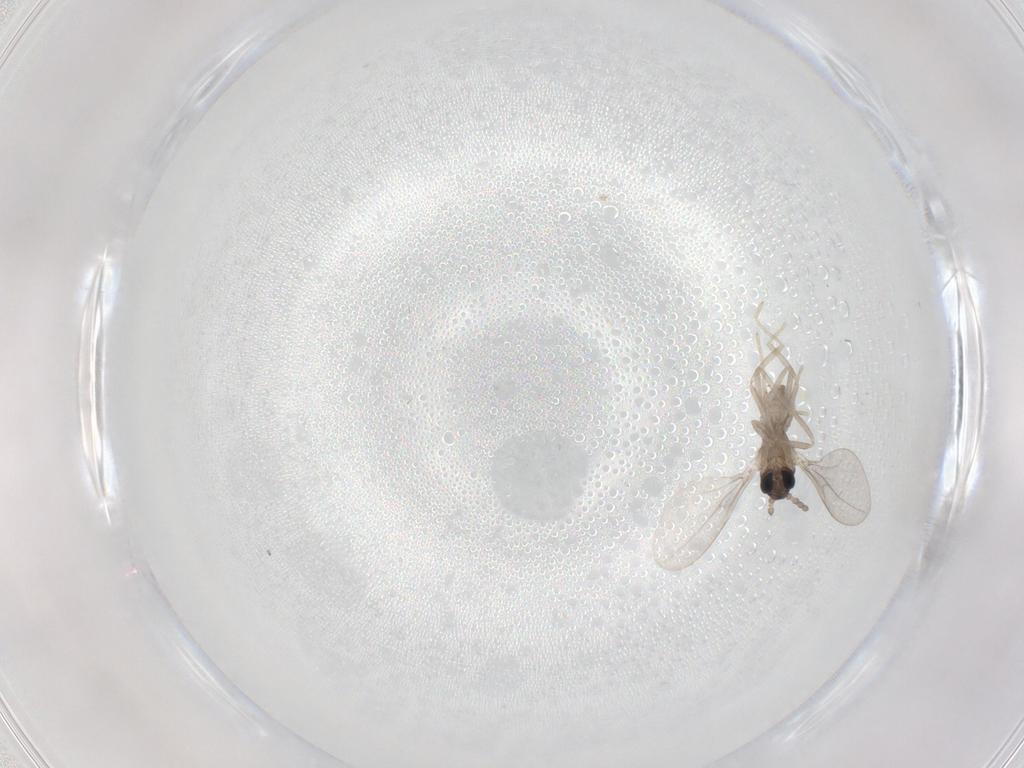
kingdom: Animalia
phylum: Arthropoda
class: Insecta
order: Diptera
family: Cecidomyiidae
